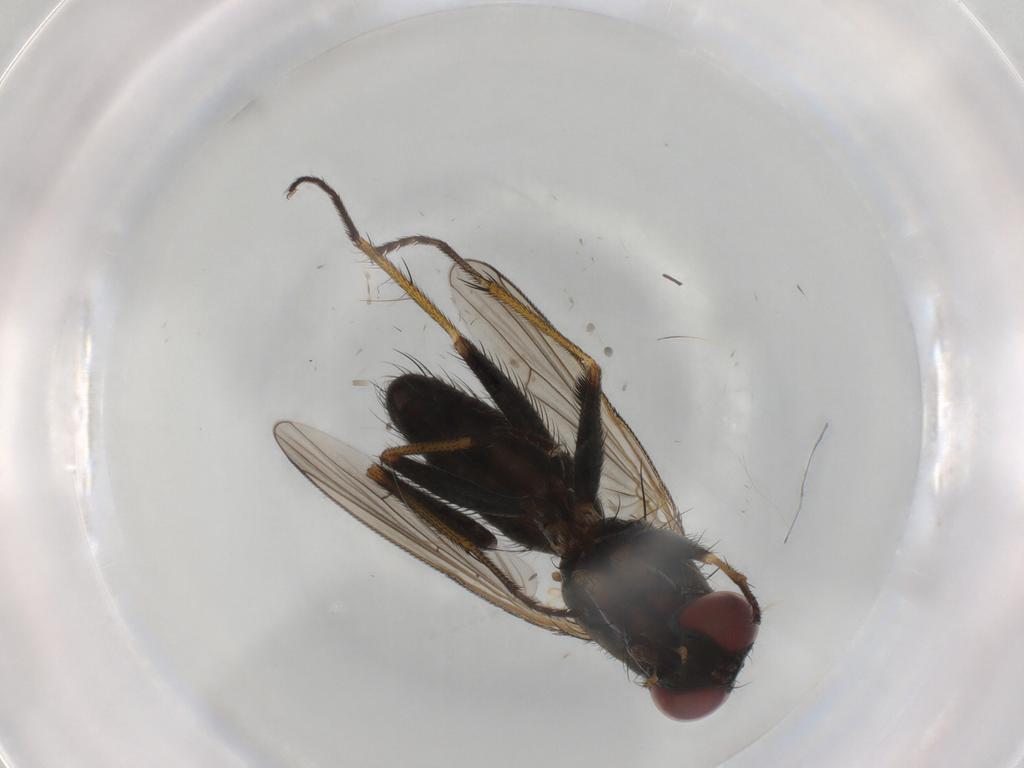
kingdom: Animalia
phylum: Arthropoda
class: Insecta
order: Diptera
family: Muscidae
